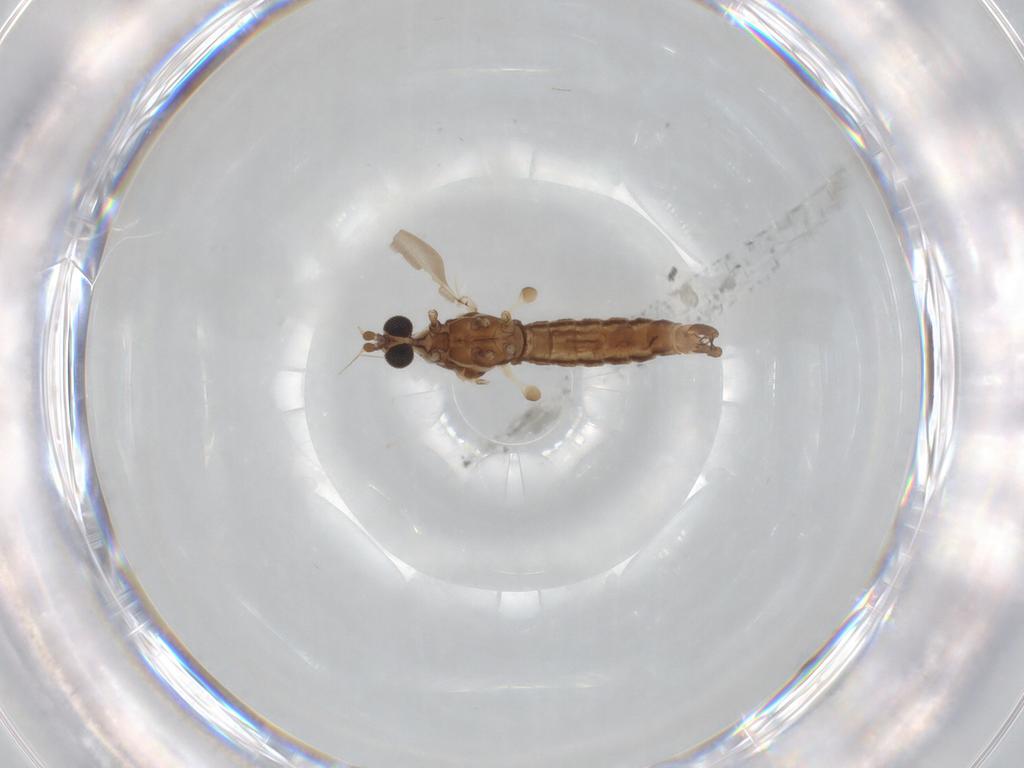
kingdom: Animalia
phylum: Arthropoda
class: Insecta
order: Diptera
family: Limoniidae
